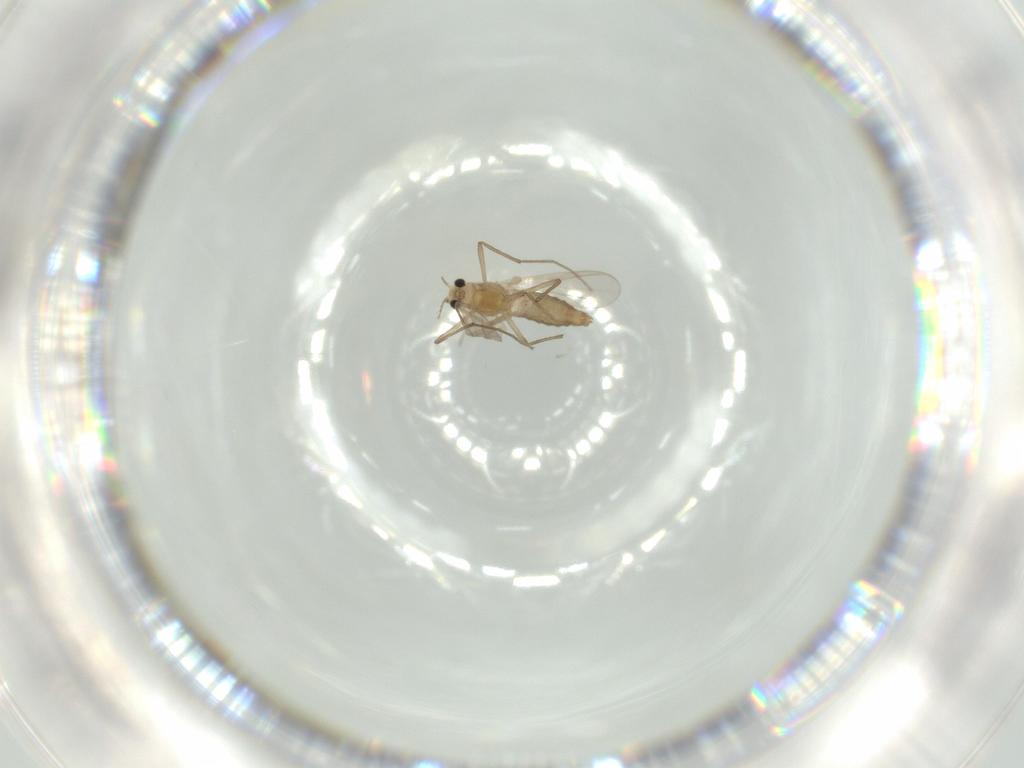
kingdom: Animalia
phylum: Arthropoda
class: Insecta
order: Diptera
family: Chironomidae
